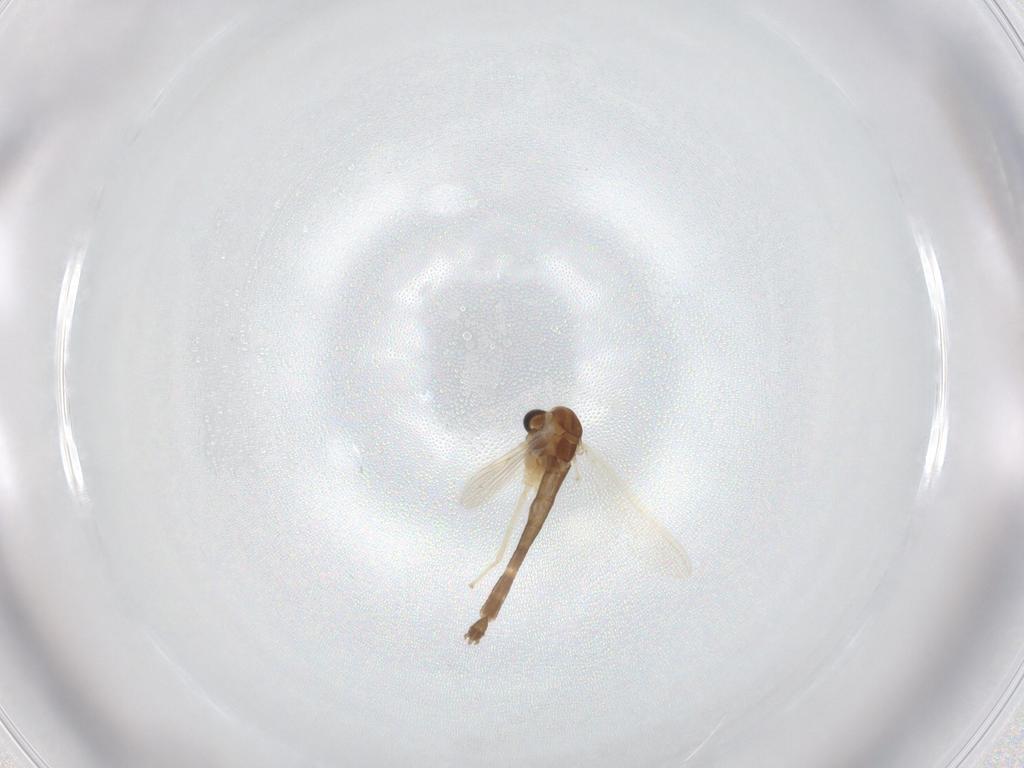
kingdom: Animalia
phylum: Arthropoda
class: Insecta
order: Diptera
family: Chironomidae
